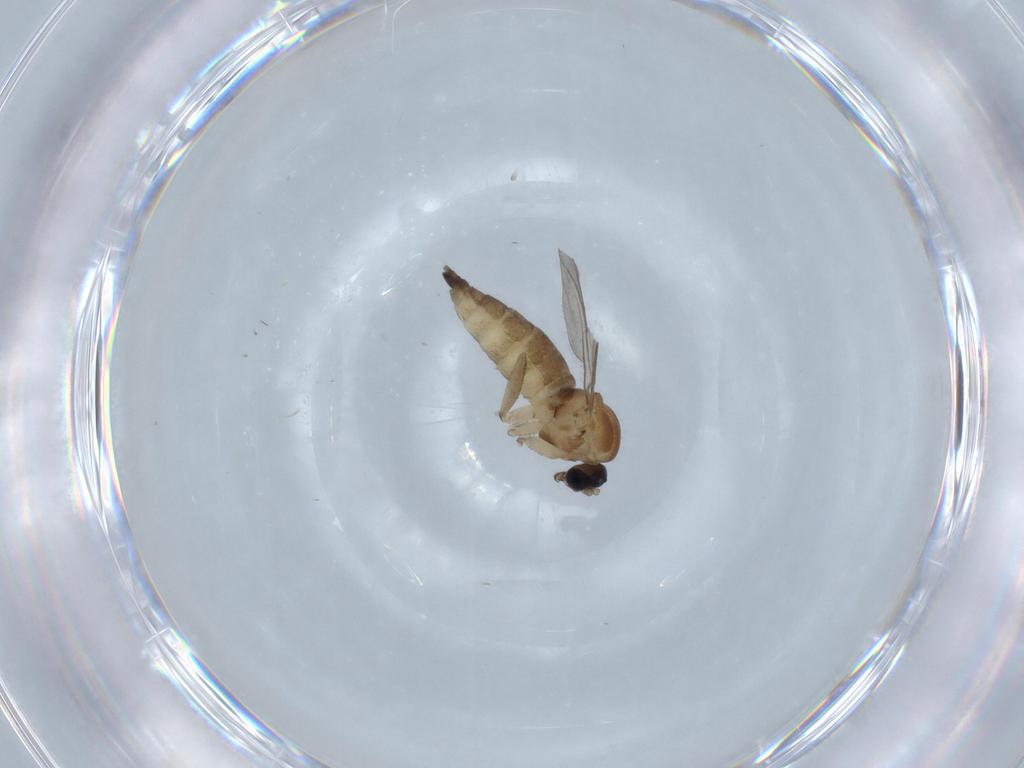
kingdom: Animalia
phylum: Arthropoda
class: Insecta
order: Diptera
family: Sciaridae
